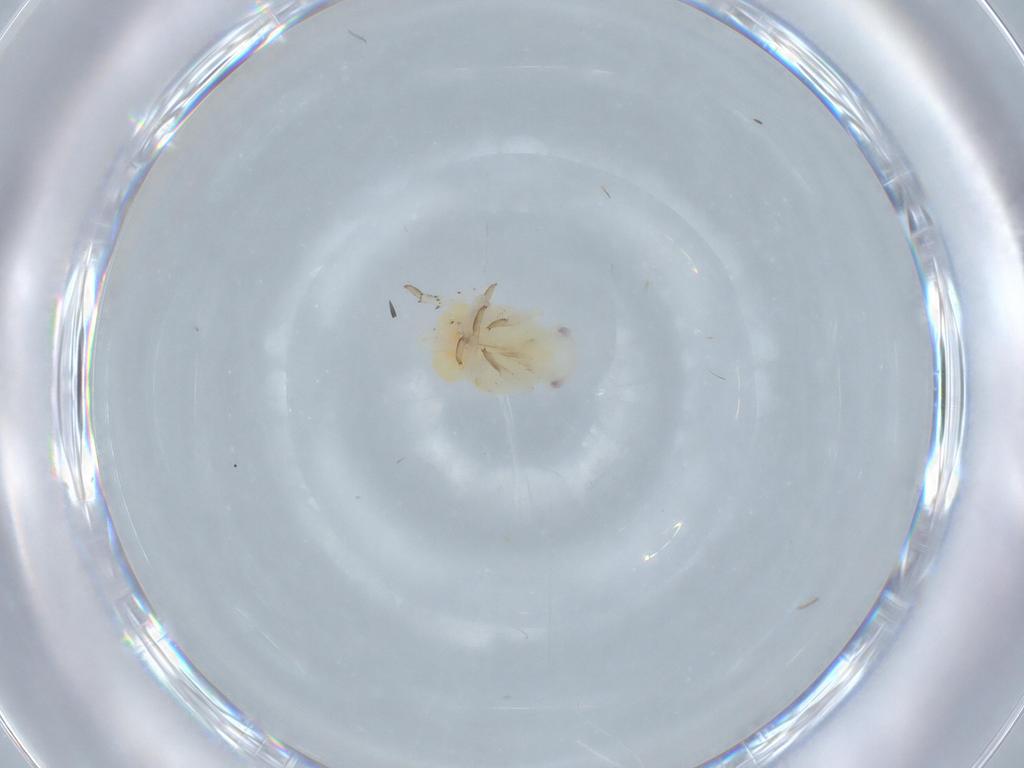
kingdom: Animalia
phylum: Arthropoda
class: Insecta
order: Hemiptera
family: Fulgoroidea_incertae_sedis
